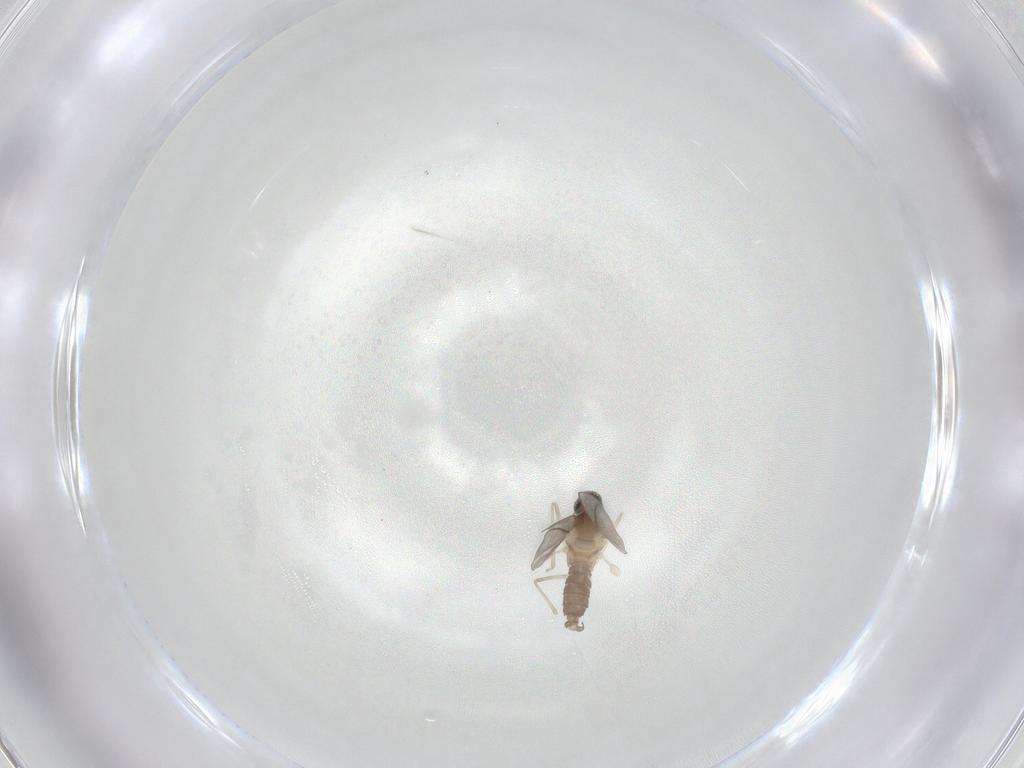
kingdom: Animalia
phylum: Arthropoda
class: Insecta
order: Diptera
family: Cecidomyiidae
